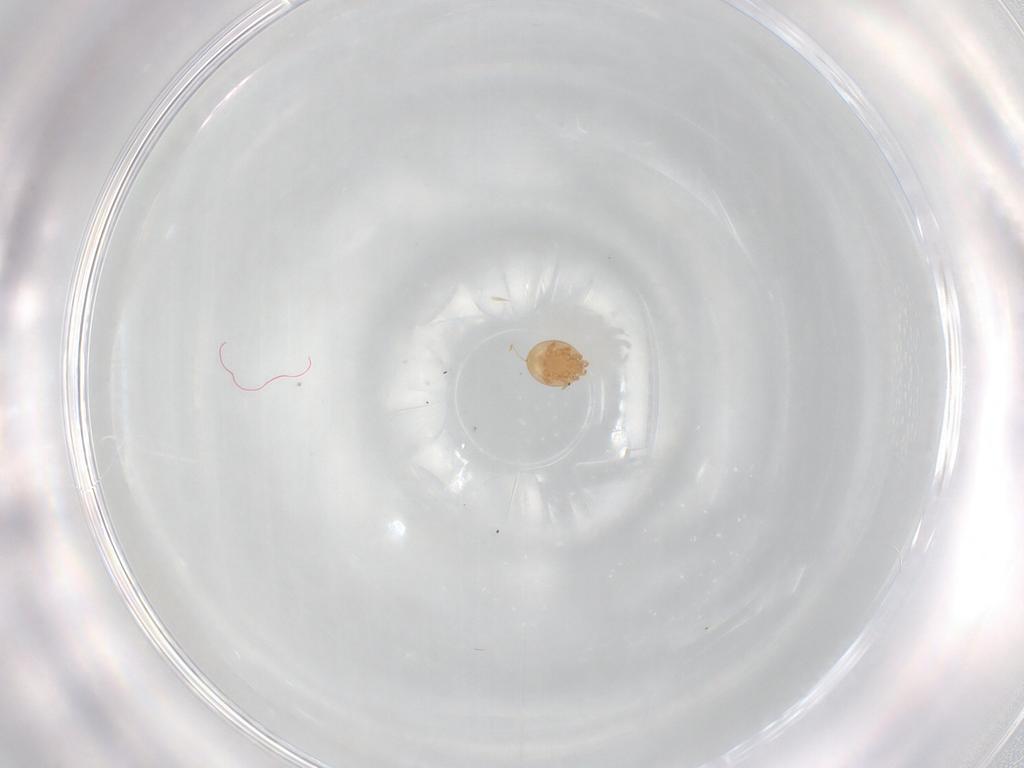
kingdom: Animalia
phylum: Arthropoda
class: Arachnida
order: Mesostigmata
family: Trematuridae
